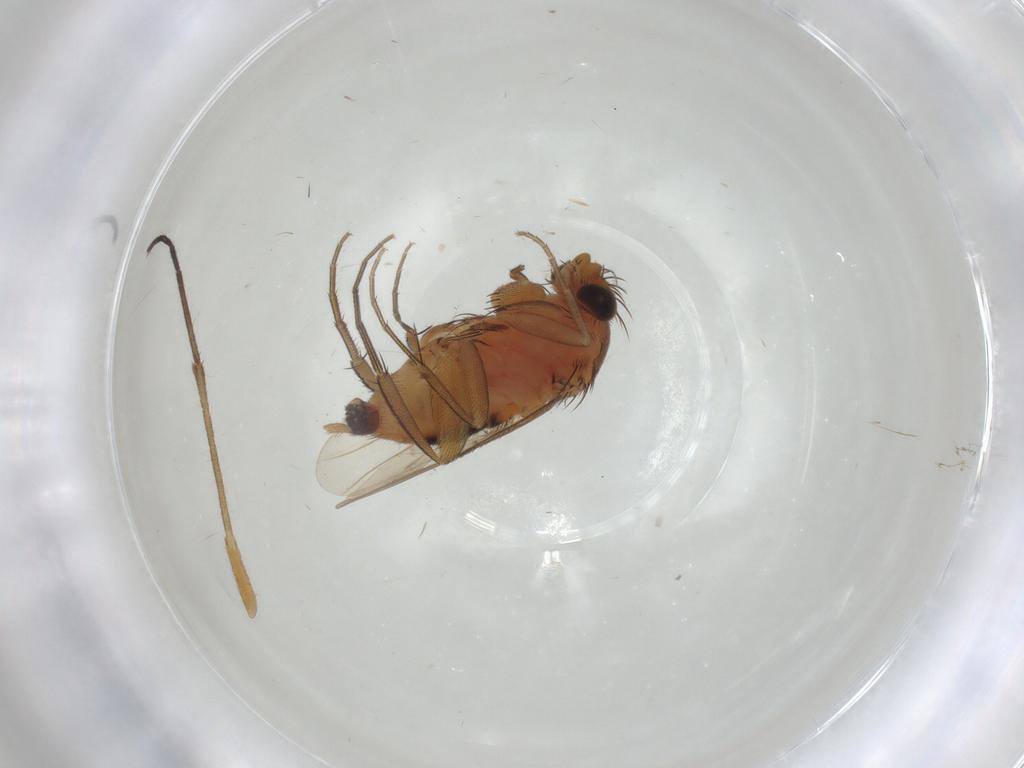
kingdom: Animalia
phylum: Arthropoda
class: Insecta
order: Diptera
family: Sciaridae
